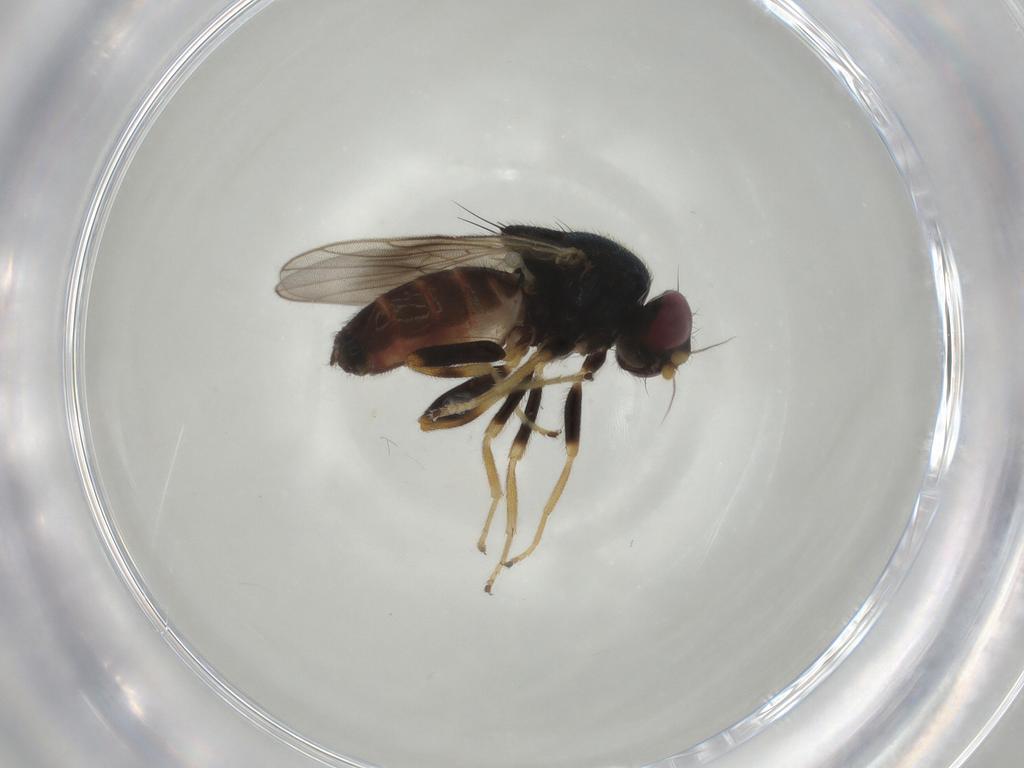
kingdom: Animalia
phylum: Arthropoda
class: Insecta
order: Diptera
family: Chloropidae
